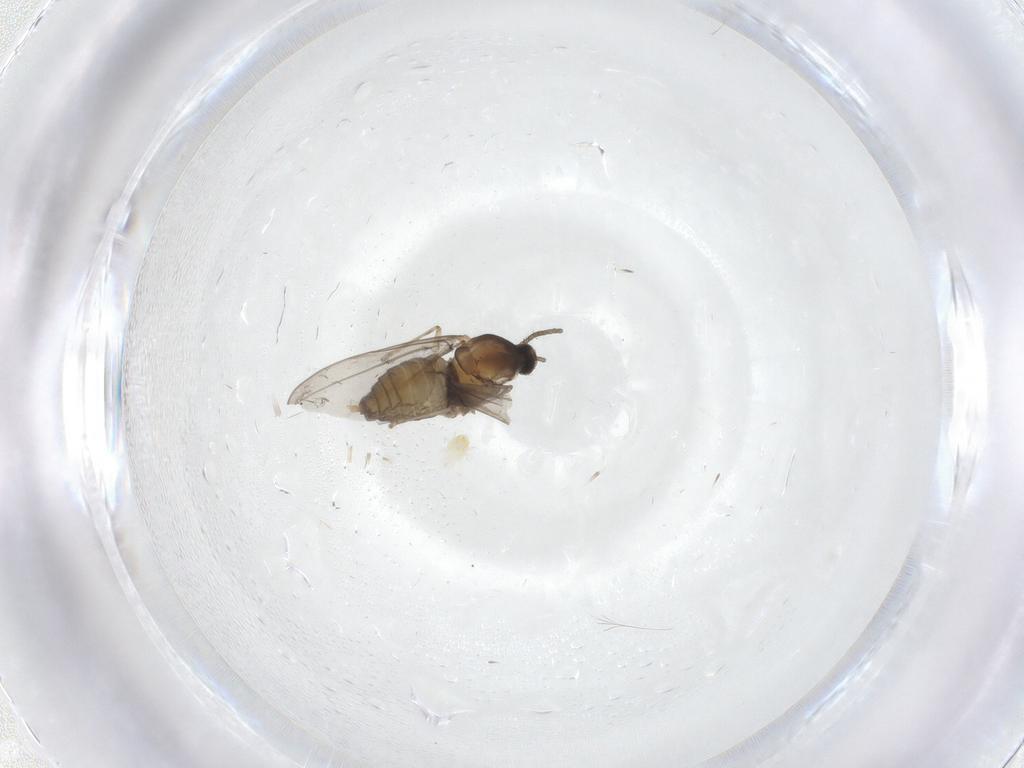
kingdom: Animalia
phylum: Arthropoda
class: Insecta
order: Diptera
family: Cecidomyiidae
